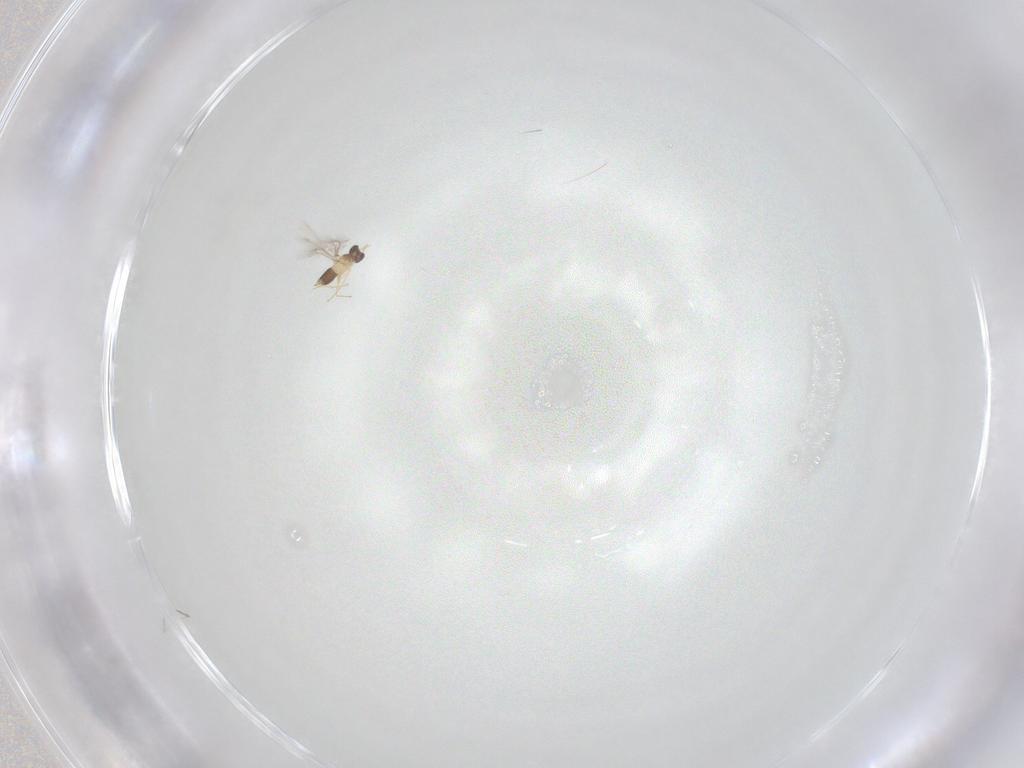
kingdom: Animalia
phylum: Arthropoda
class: Insecta
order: Hymenoptera
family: Mymaridae
